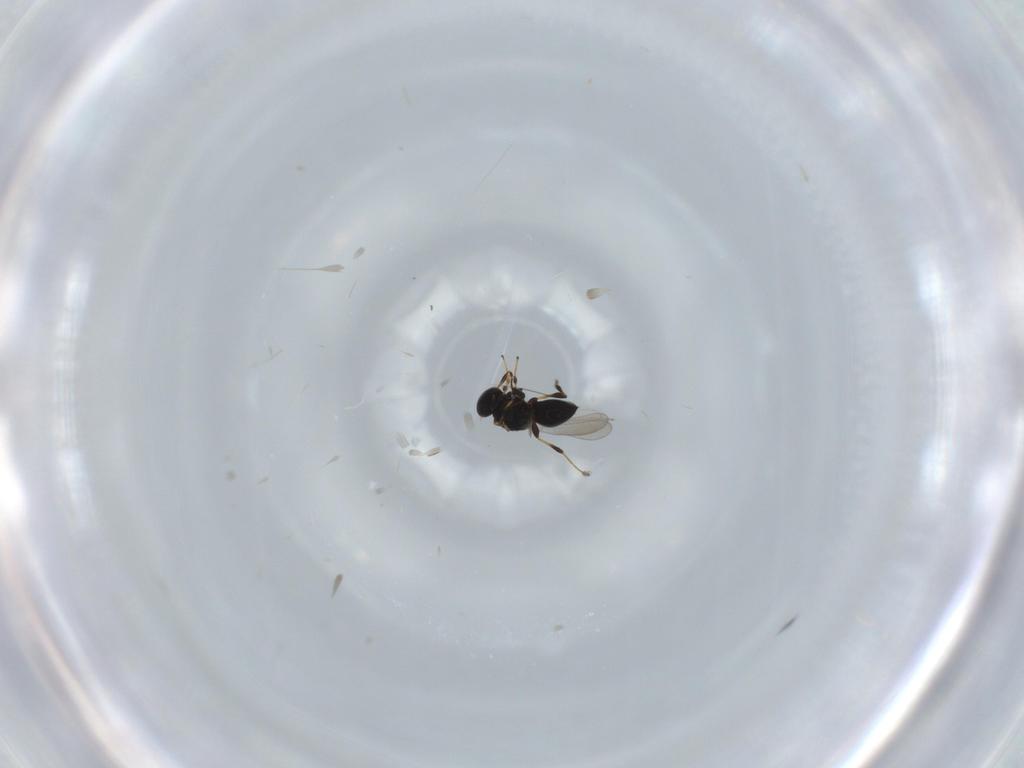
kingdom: Animalia
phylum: Arthropoda
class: Insecta
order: Hymenoptera
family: Platygastridae
